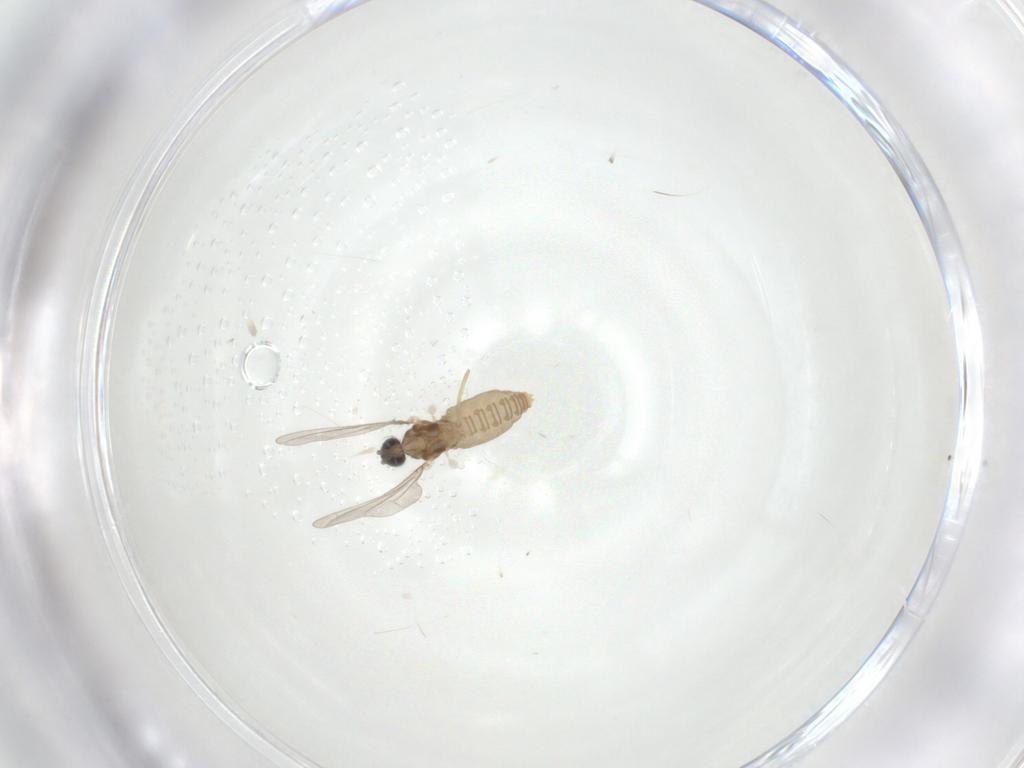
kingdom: Animalia
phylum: Arthropoda
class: Insecta
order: Diptera
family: Cecidomyiidae
